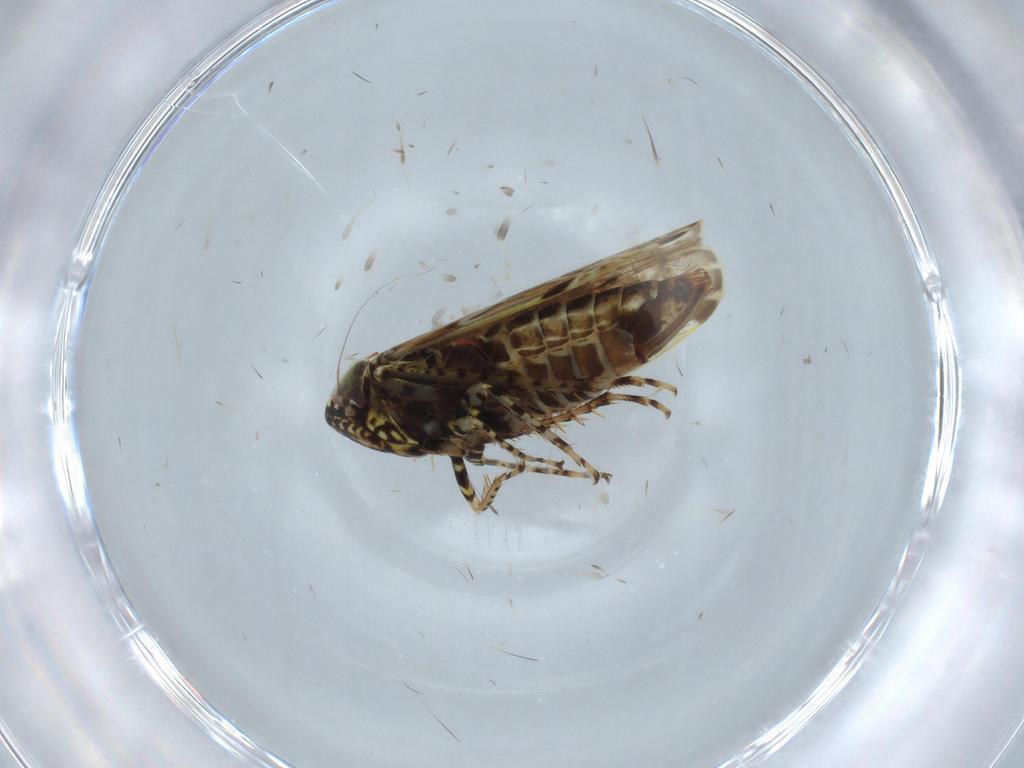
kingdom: Animalia
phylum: Arthropoda
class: Insecta
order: Hemiptera
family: Cicadellidae
